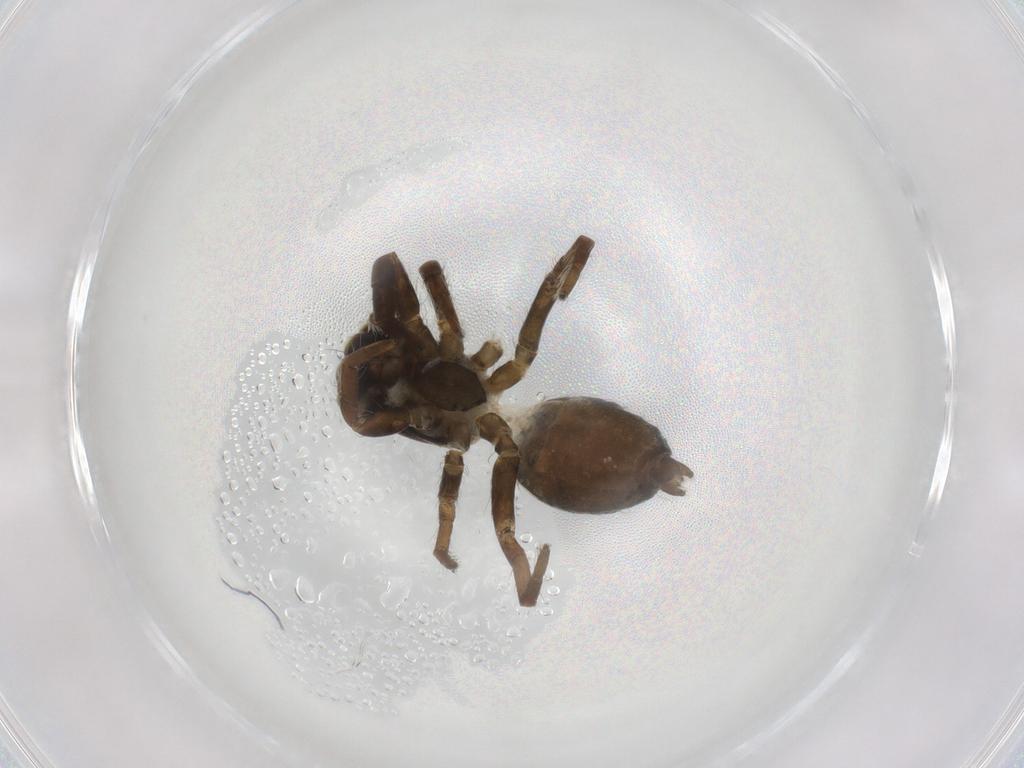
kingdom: Animalia
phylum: Arthropoda
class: Arachnida
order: Araneae
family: Salticidae
